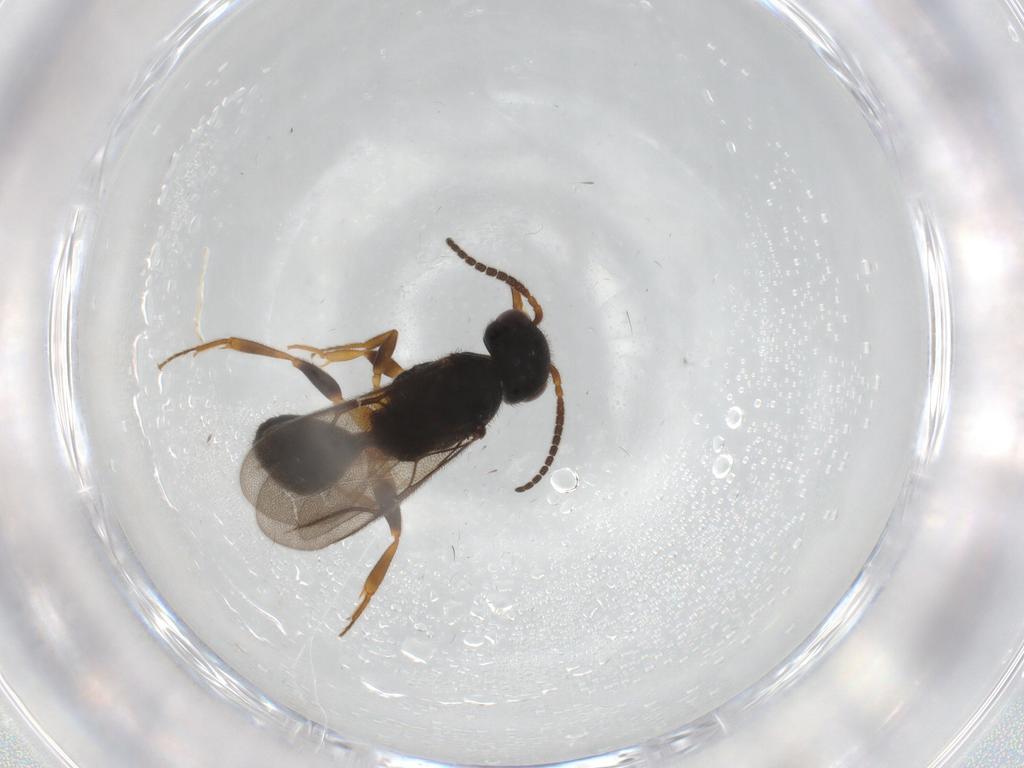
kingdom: Animalia
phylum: Arthropoda
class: Insecta
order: Hymenoptera
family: Bethylidae
